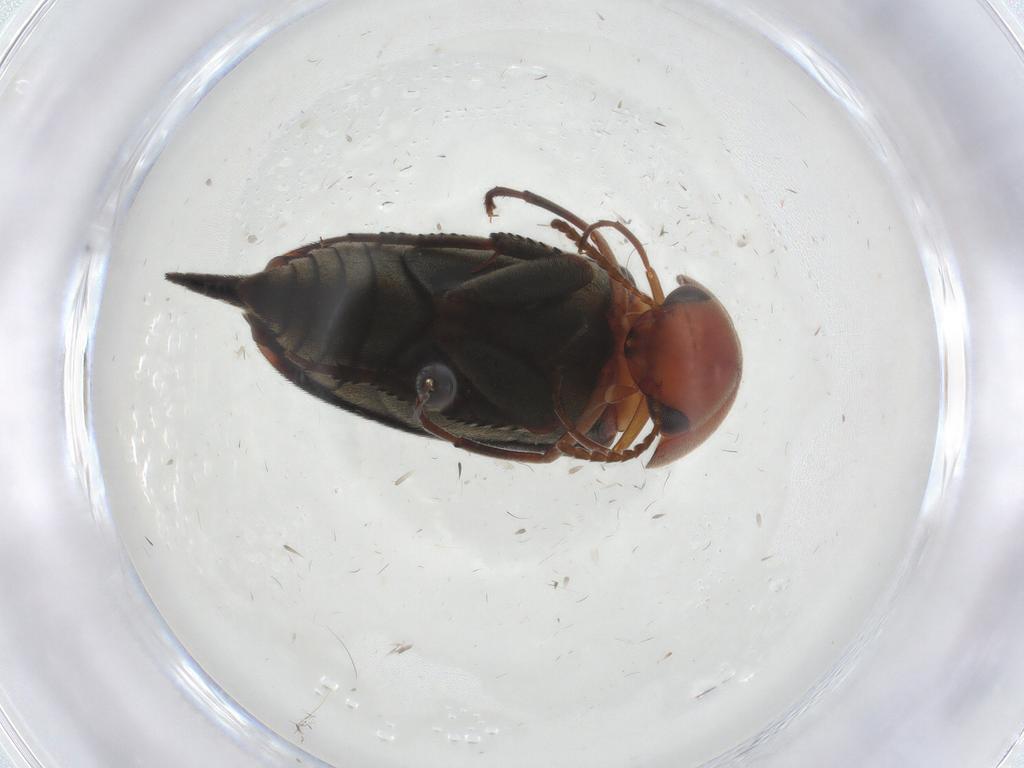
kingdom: Animalia
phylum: Arthropoda
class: Insecta
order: Coleoptera
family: Mordellidae
